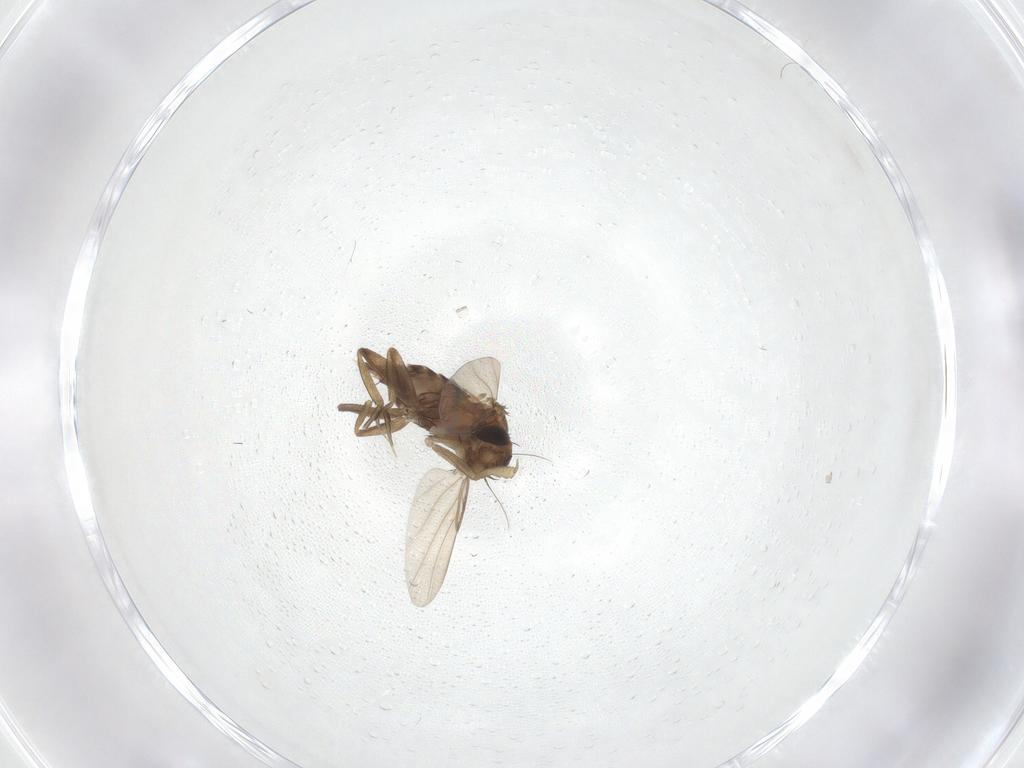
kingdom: Animalia
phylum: Arthropoda
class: Insecta
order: Diptera
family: Phoridae
